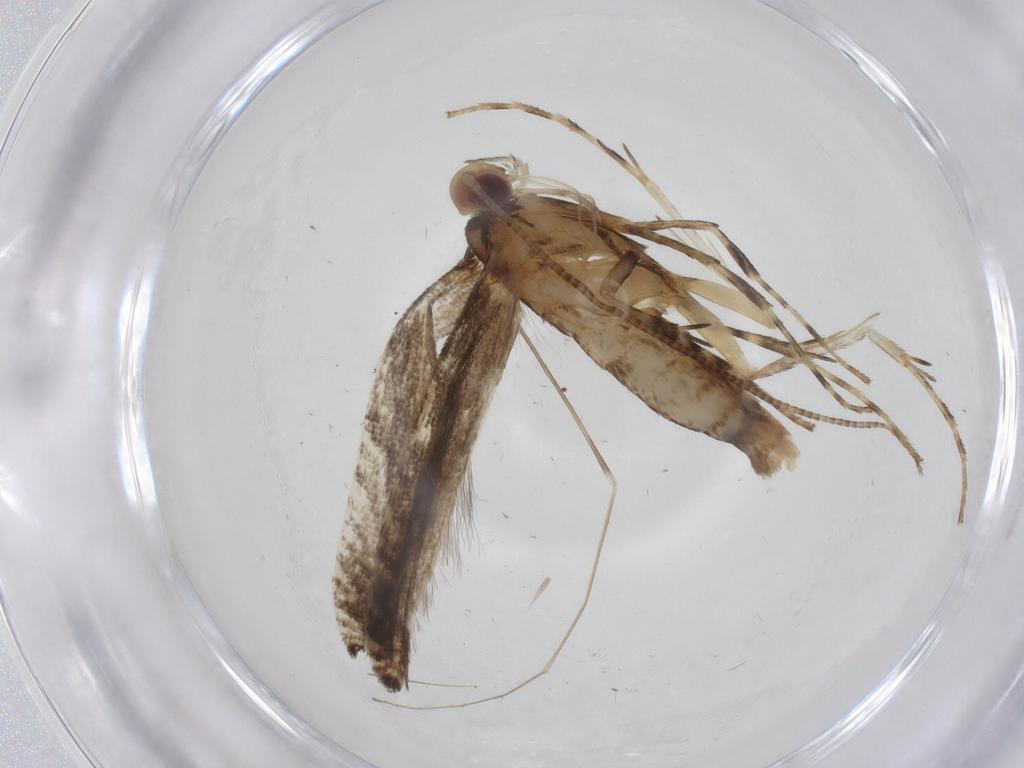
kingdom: Animalia
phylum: Arthropoda
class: Insecta
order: Lepidoptera
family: Gracillariidae
